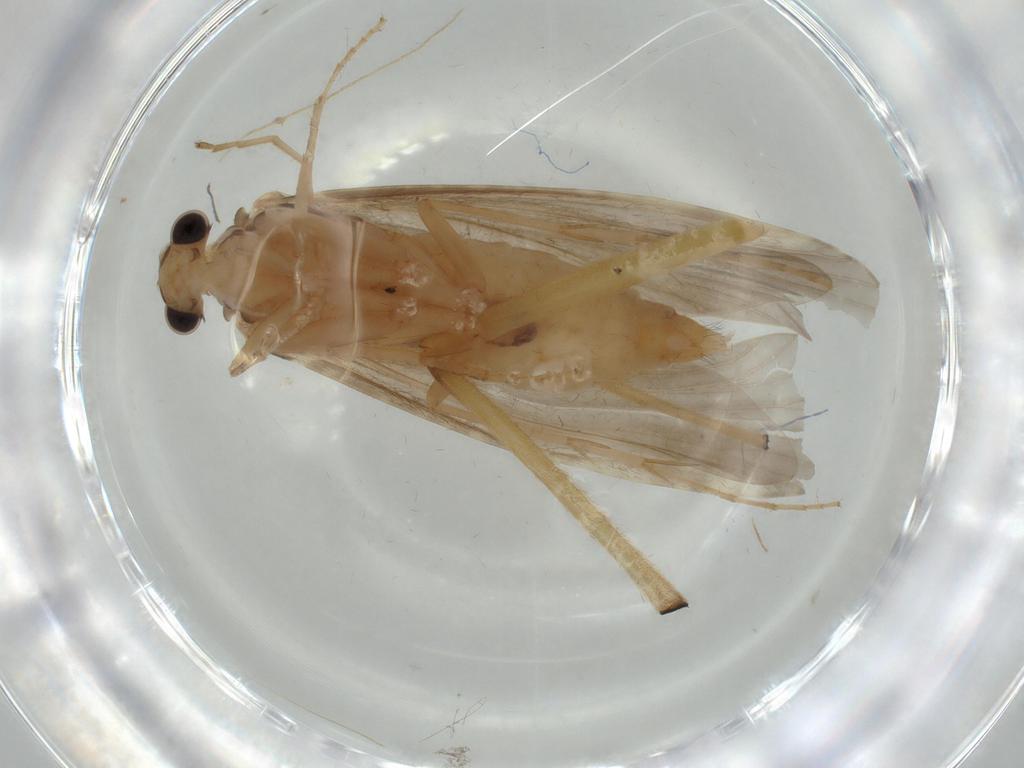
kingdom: Animalia
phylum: Arthropoda
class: Insecta
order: Trichoptera
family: Ecnomidae
